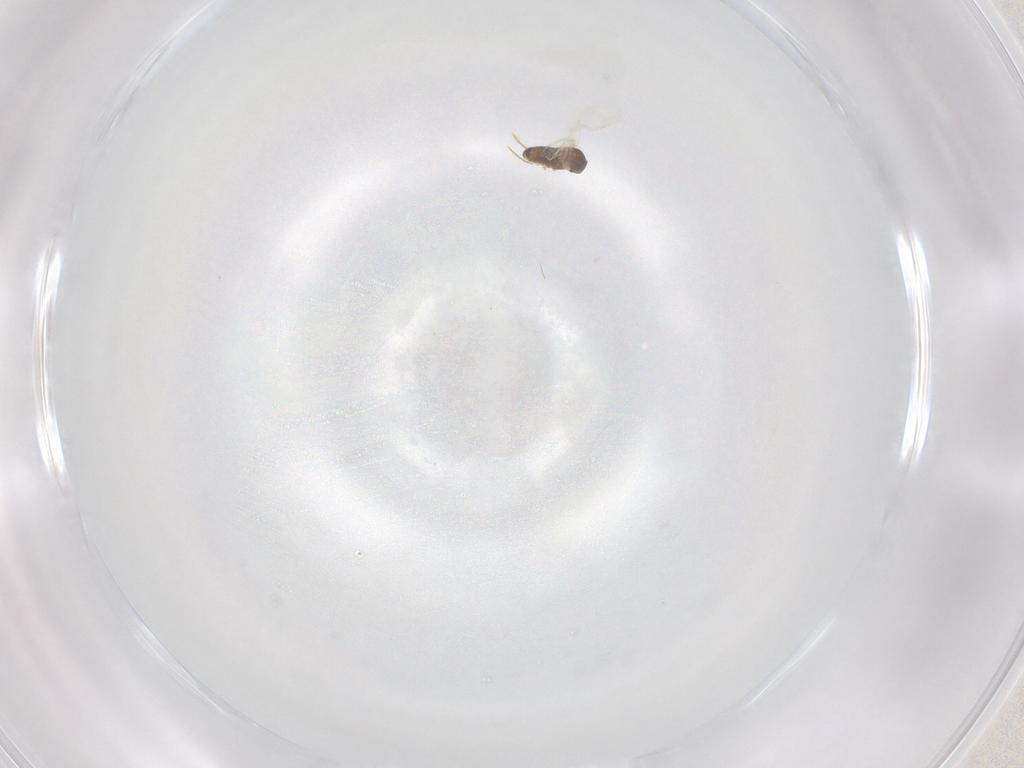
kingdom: Animalia
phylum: Arthropoda
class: Insecta
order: Diptera
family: Cecidomyiidae
